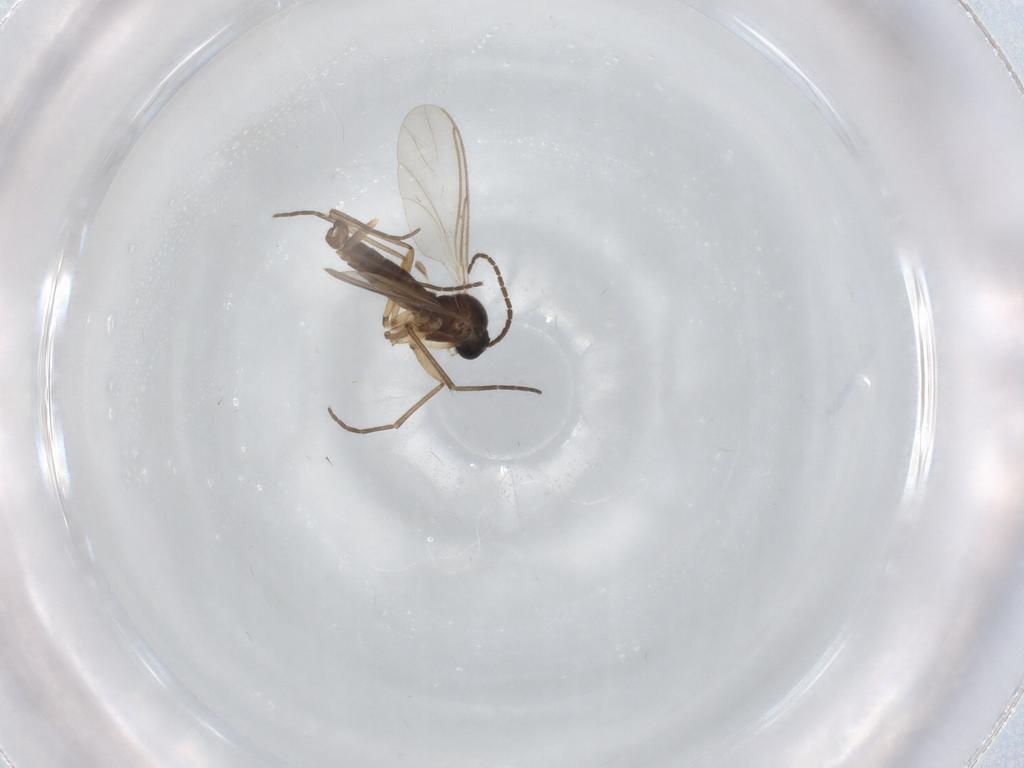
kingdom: Animalia
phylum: Arthropoda
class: Insecta
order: Diptera
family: Sciaridae
